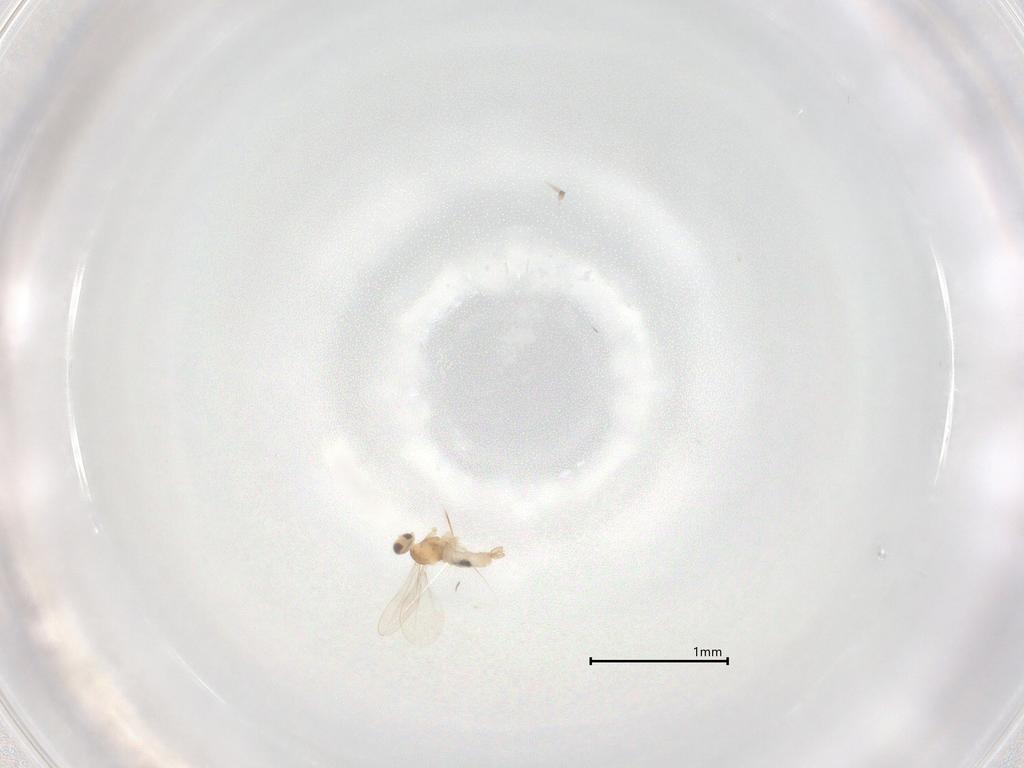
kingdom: Animalia
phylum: Arthropoda
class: Insecta
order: Diptera
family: Cecidomyiidae
